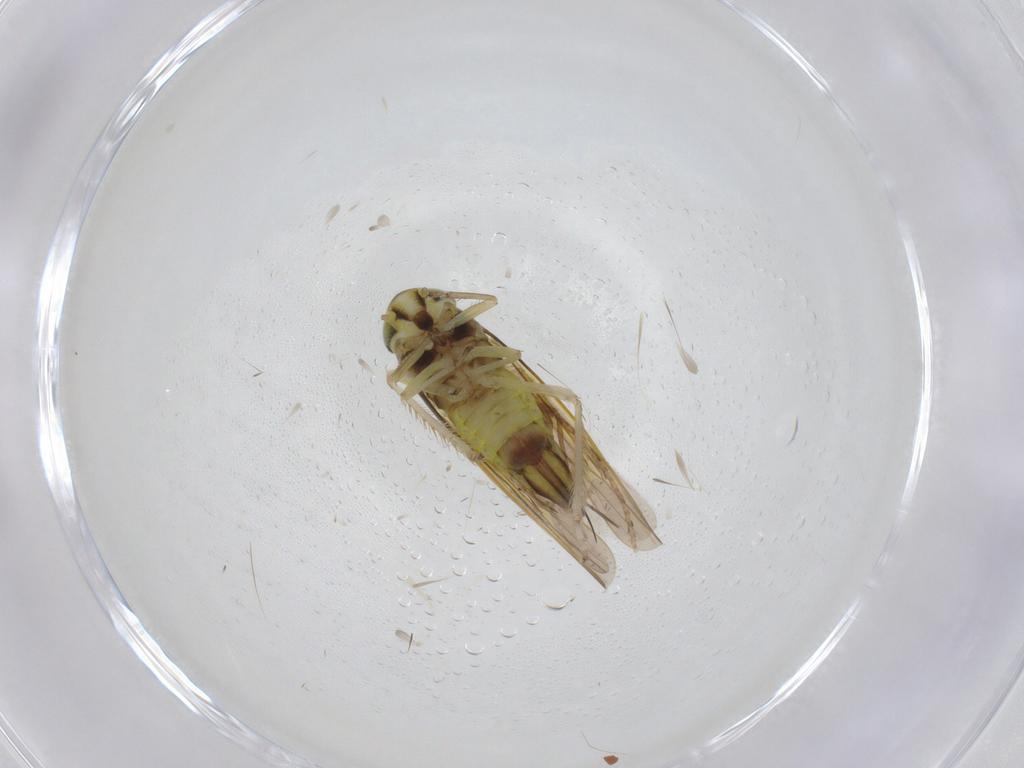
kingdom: Animalia
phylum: Arthropoda
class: Insecta
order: Hemiptera
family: Cicadellidae
